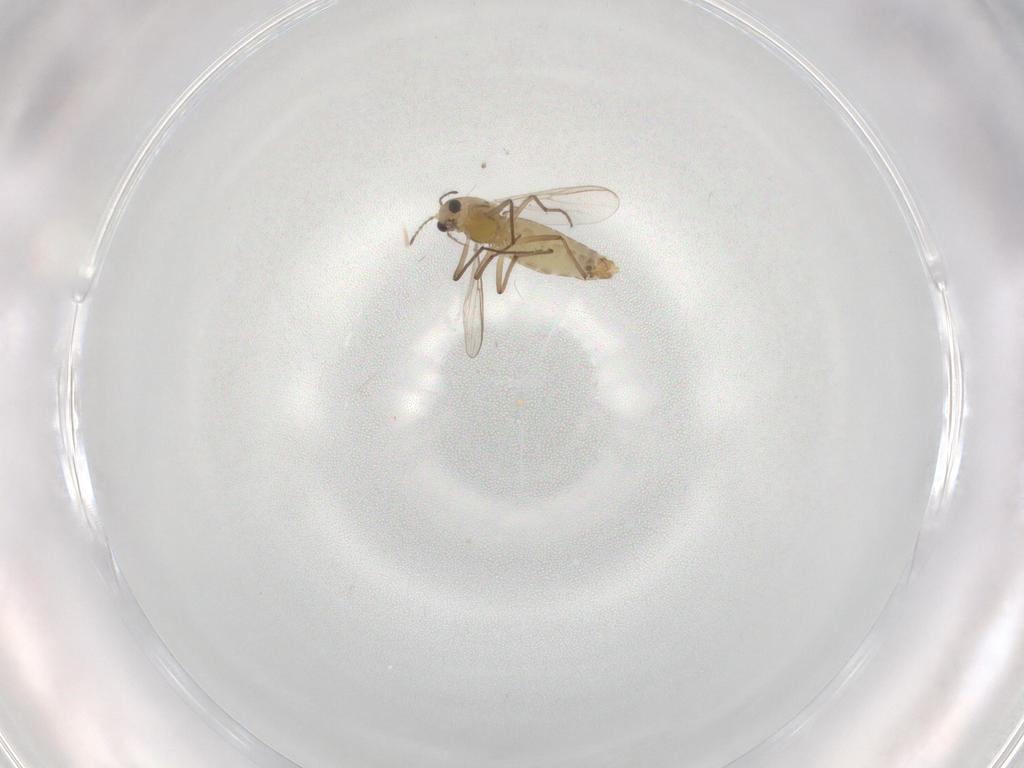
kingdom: Animalia
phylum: Arthropoda
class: Insecta
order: Diptera
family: Chironomidae
